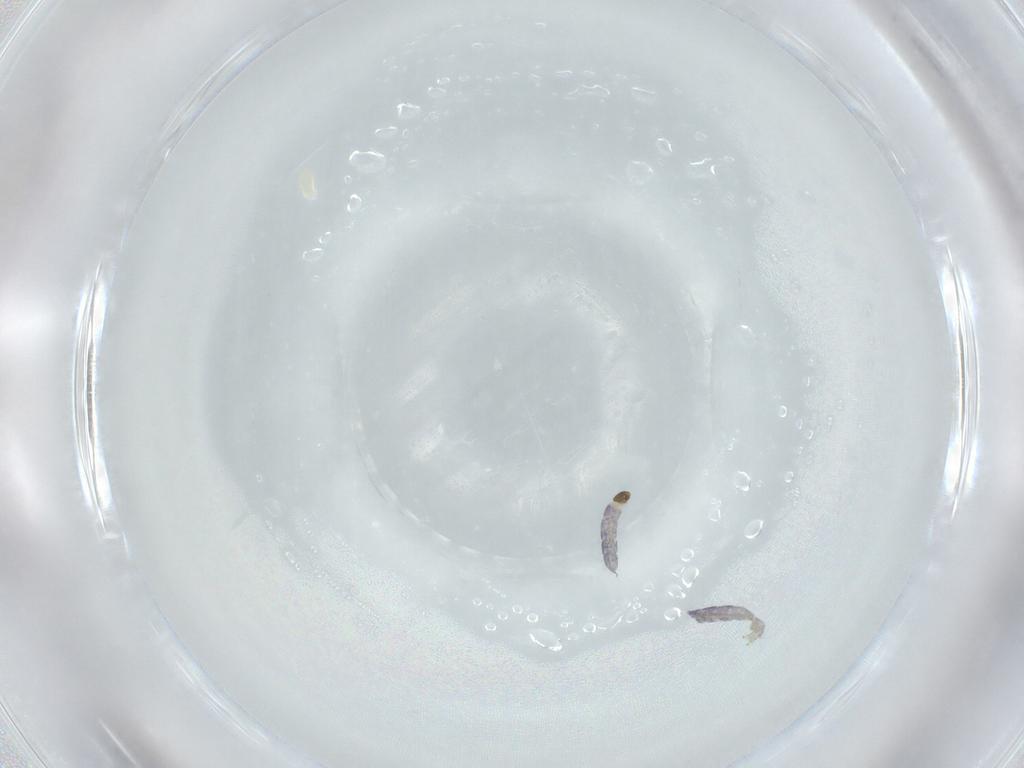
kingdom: Animalia
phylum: Arthropoda
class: Insecta
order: Diptera
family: Chironomidae
